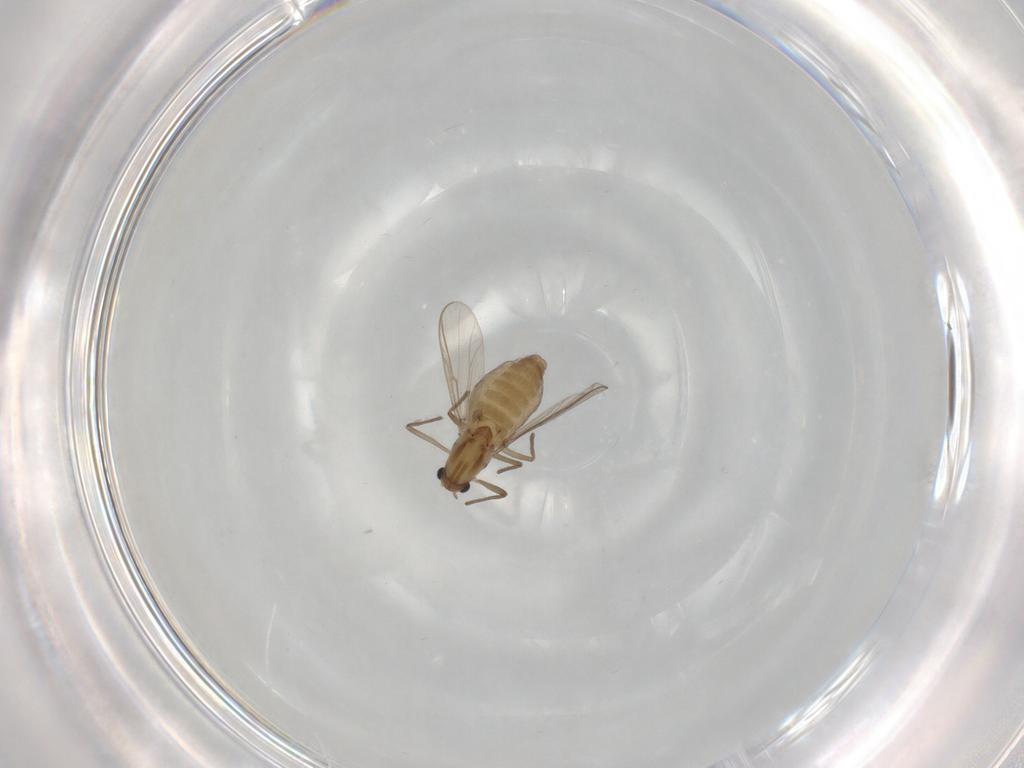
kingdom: Animalia
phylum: Arthropoda
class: Insecta
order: Diptera
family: Chironomidae
